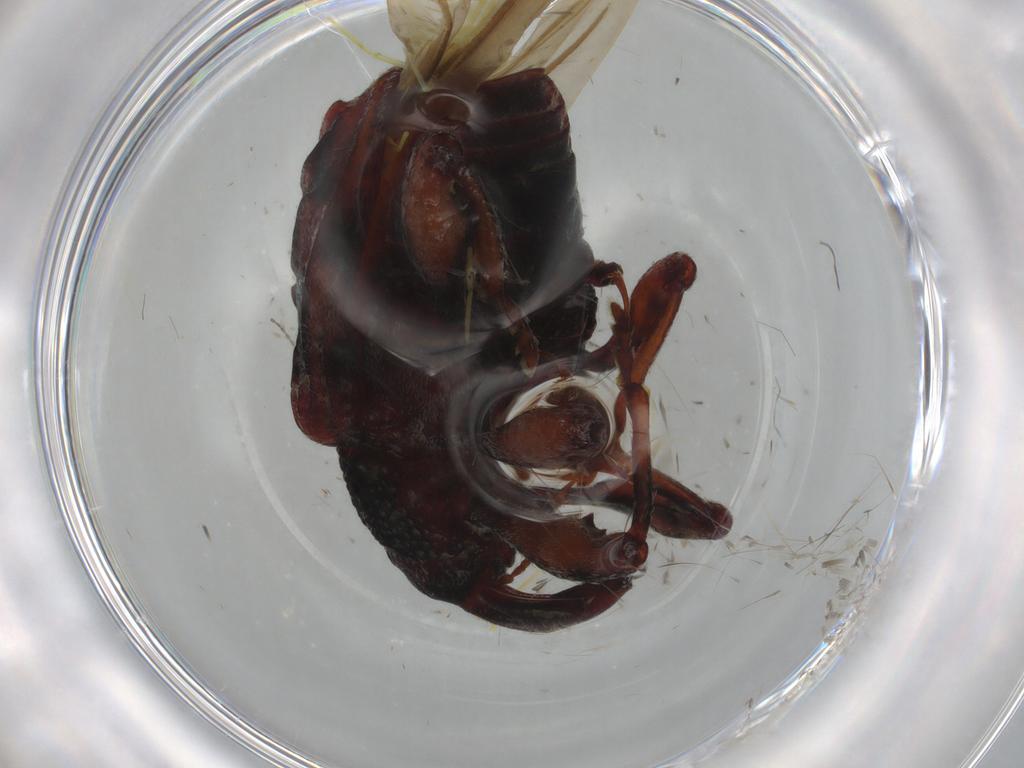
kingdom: Animalia
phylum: Arthropoda
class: Insecta
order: Coleoptera
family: Curculionidae
